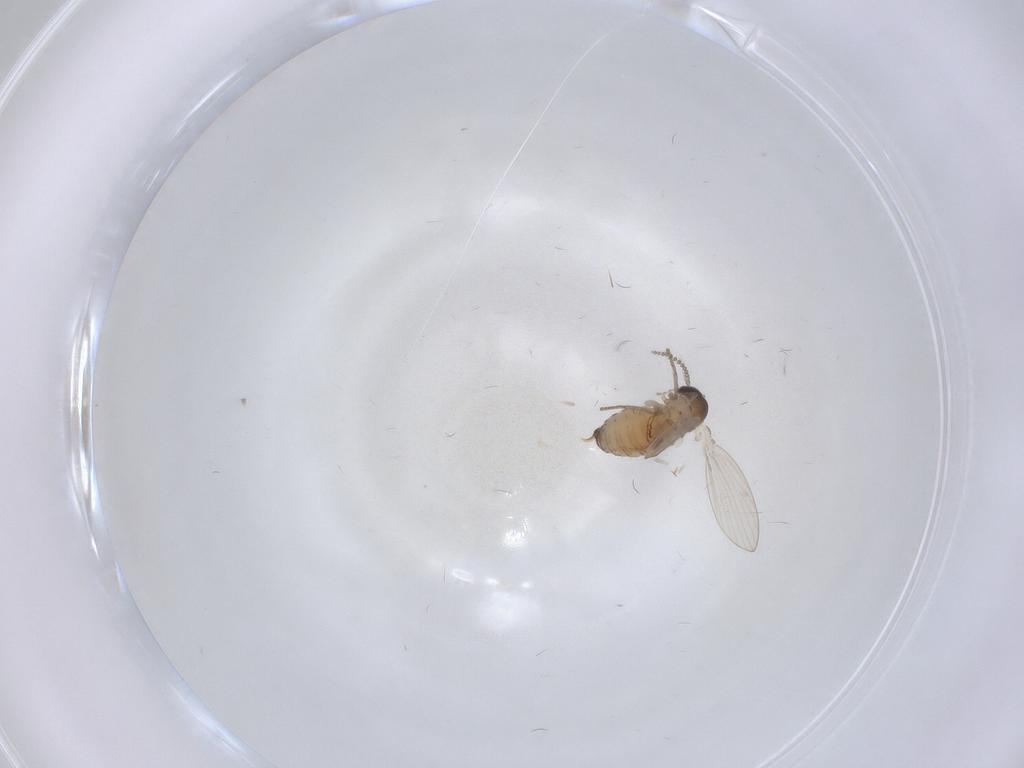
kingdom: Animalia
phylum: Arthropoda
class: Insecta
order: Diptera
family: Psychodidae
